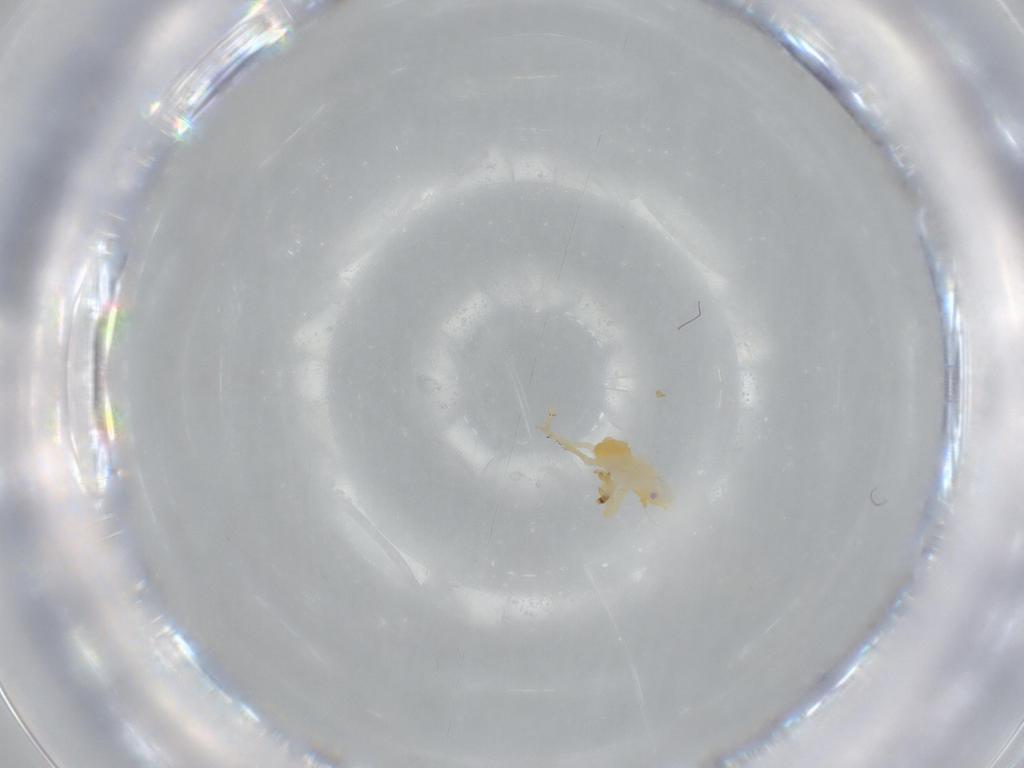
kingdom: Animalia
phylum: Arthropoda
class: Insecta
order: Hemiptera
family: Flatidae
